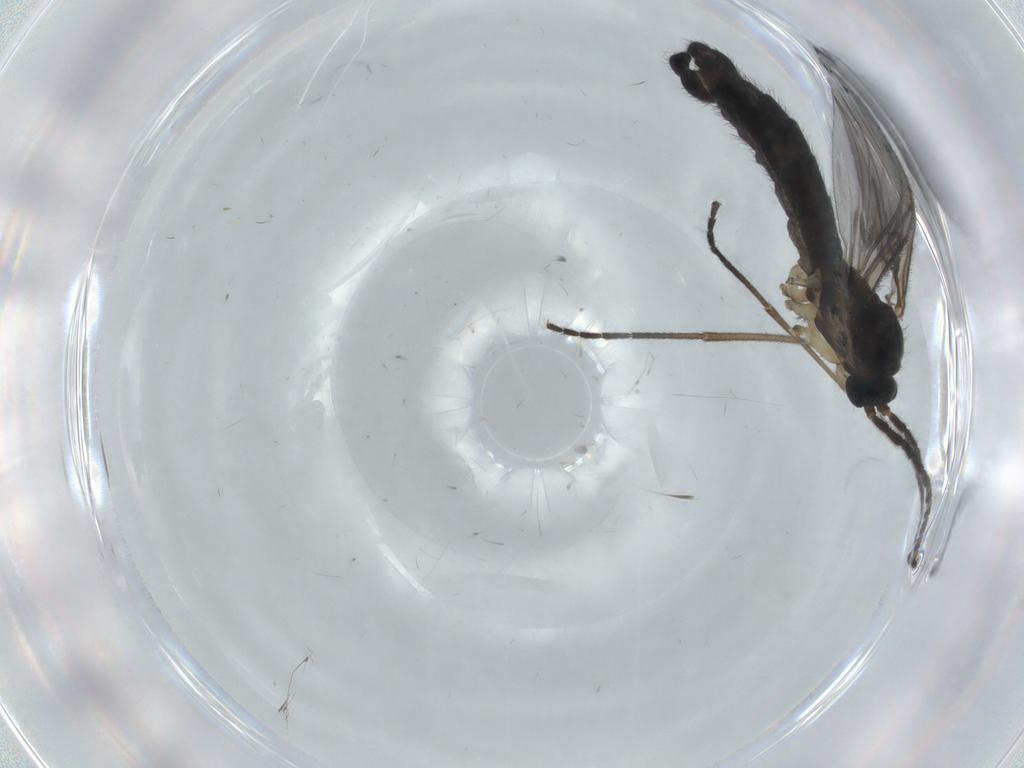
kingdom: Animalia
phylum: Arthropoda
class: Insecta
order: Diptera
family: Sciaridae
